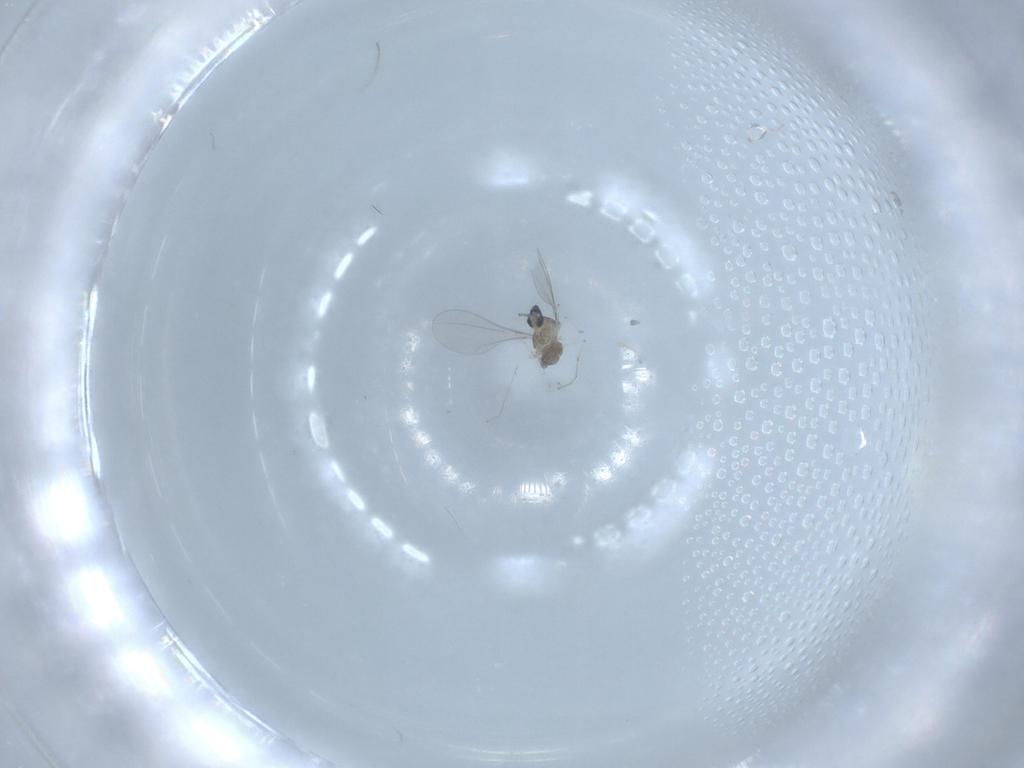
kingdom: Animalia
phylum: Arthropoda
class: Insecta
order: Diptera
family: Cecidomyiidae
